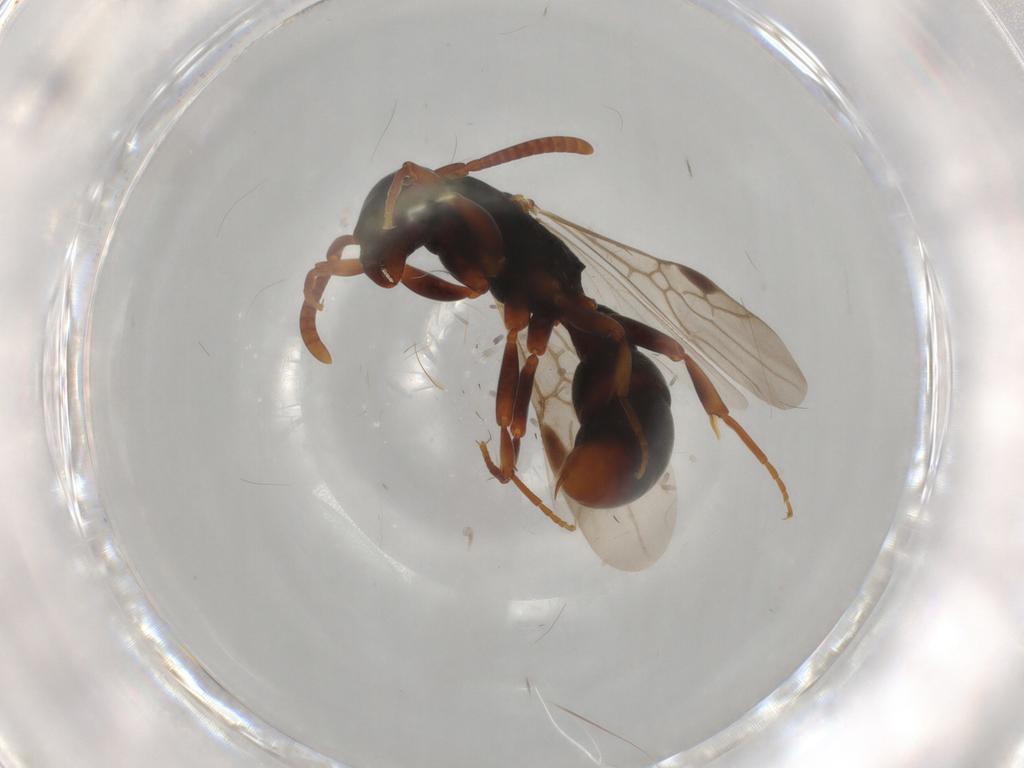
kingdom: Animalia
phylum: Arthropoda
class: Insecta
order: Hymenoptera
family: Formicidae
